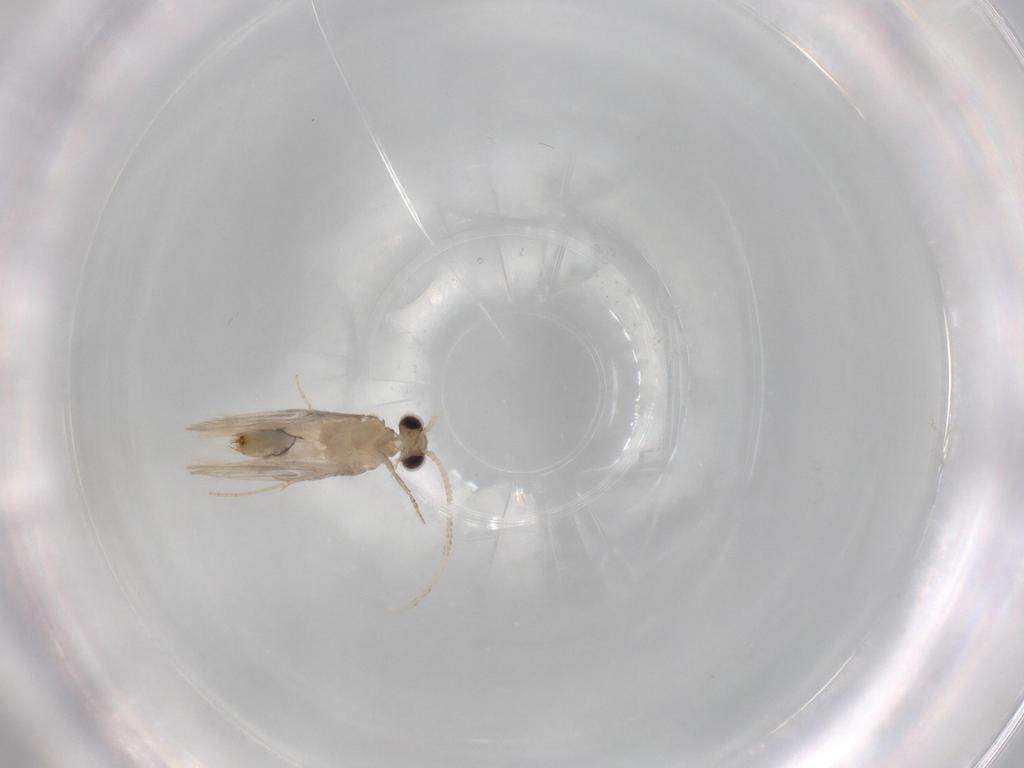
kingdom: Animalia
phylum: Arthropoda
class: Insecta
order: Trichoptera
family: Hydroptilidae
